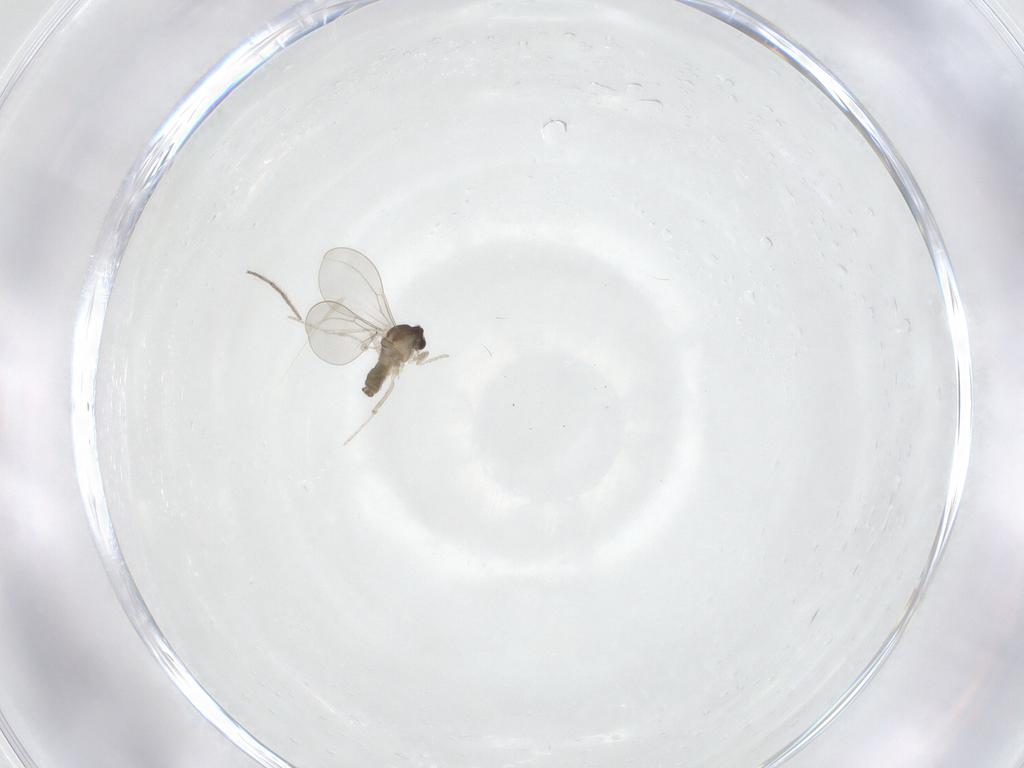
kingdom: Animalia
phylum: Arthropoda
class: Insecta
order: Diptera
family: Cecidomyiidae
